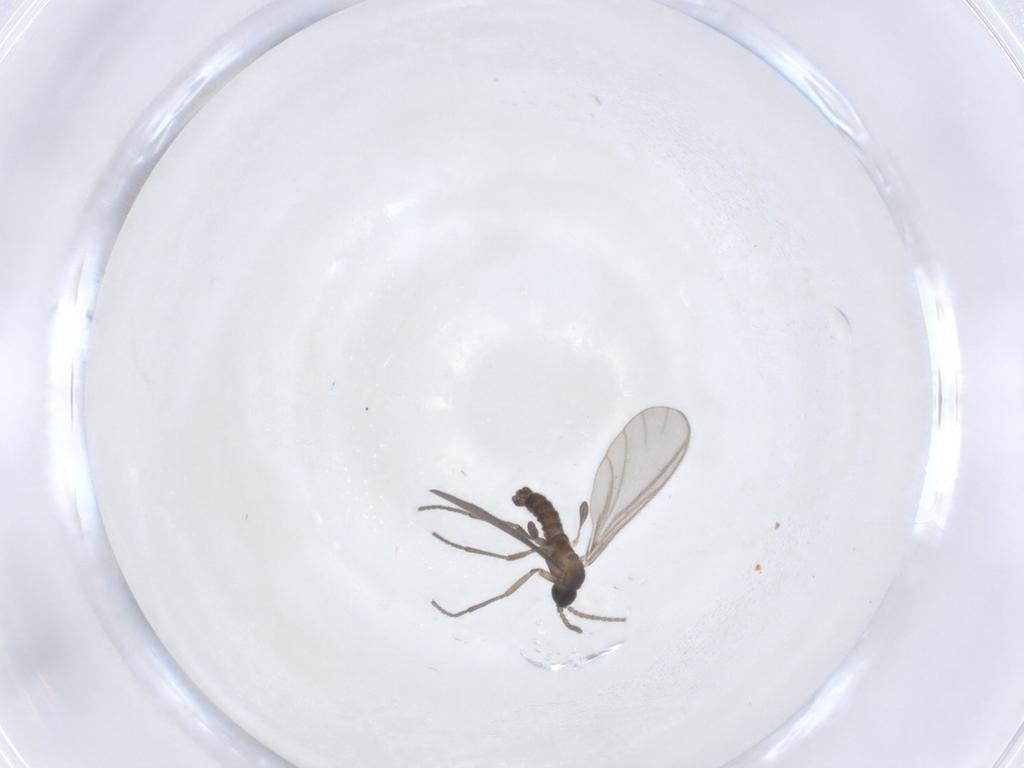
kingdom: Animalia
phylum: Arthropoda
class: Insecta
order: Diptera
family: Sciaridae
